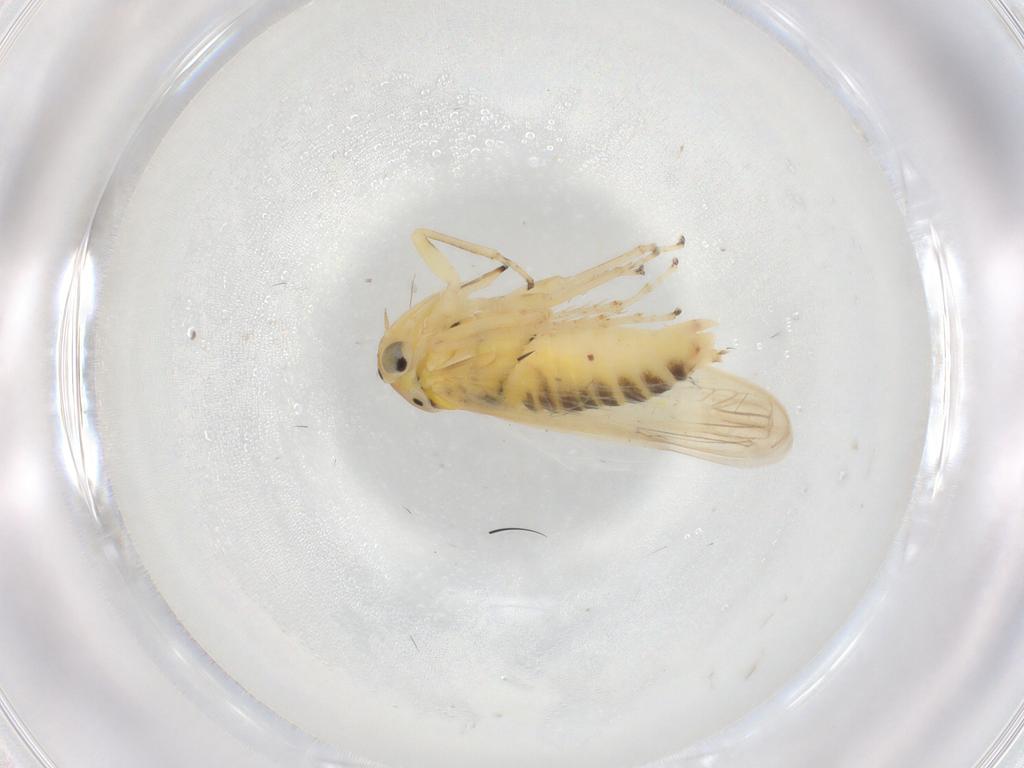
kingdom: Animalia
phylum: Arthropoda
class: Insecta
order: Hemiptera
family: Cicadellidae
